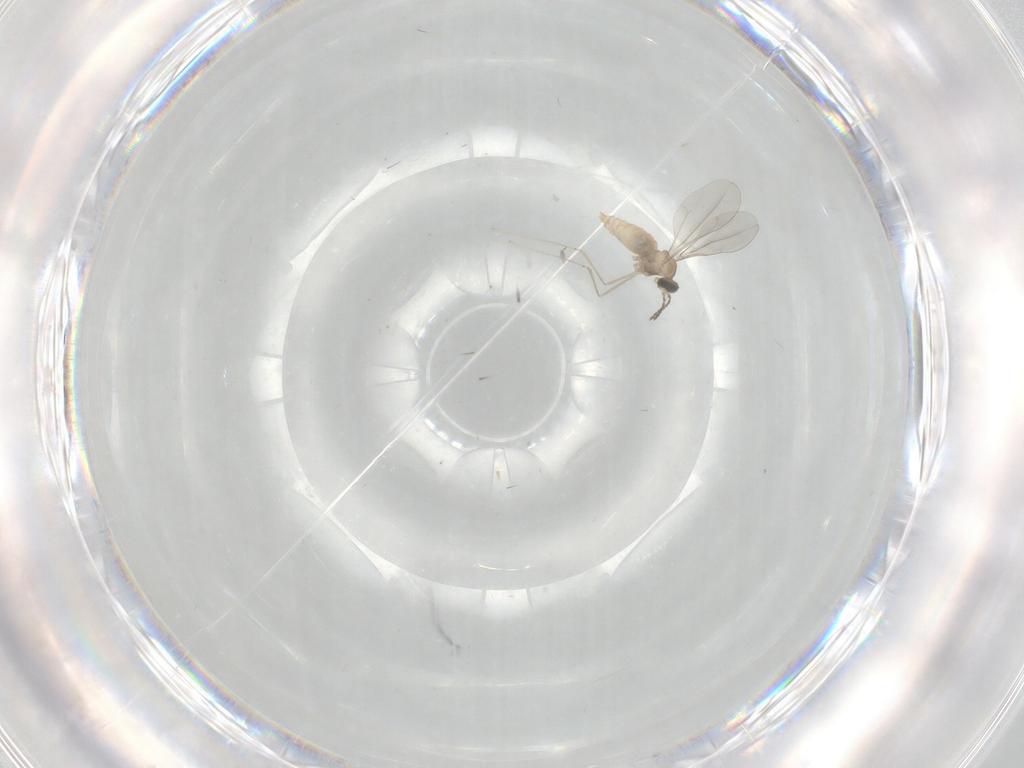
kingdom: Animalia
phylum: Arthropoda
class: Insecta
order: Diptera
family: Cecidomyiidae
